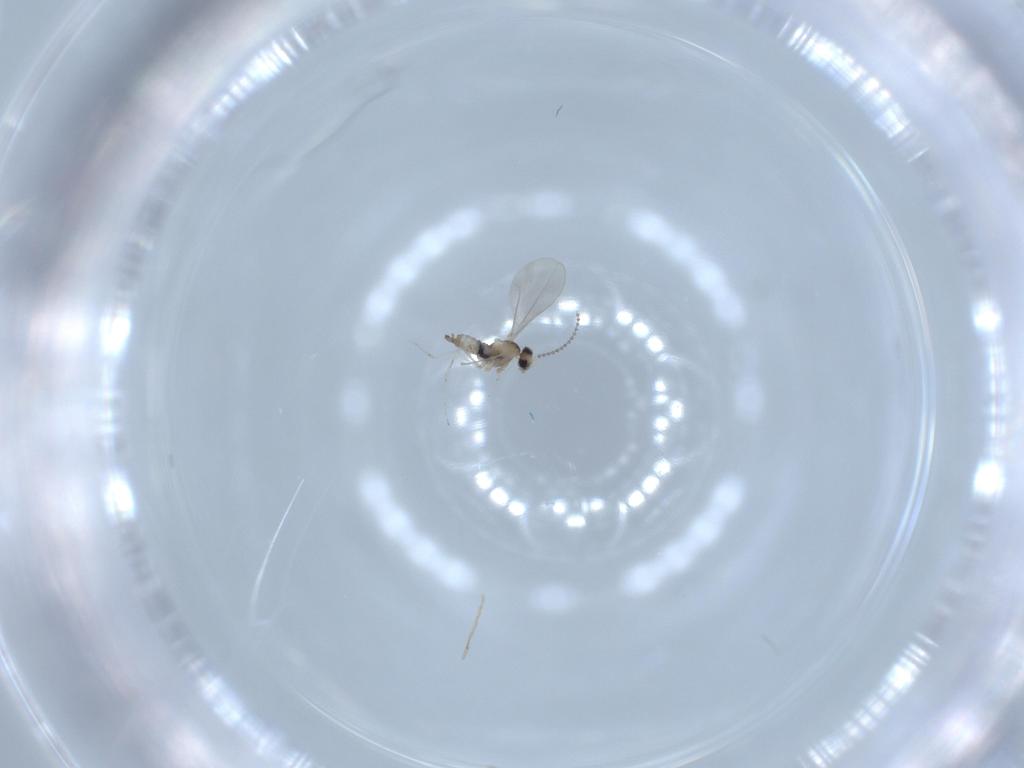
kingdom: Animalia
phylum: Arthropoda
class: Insecta
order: Diptera
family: Cecidomyiidae
